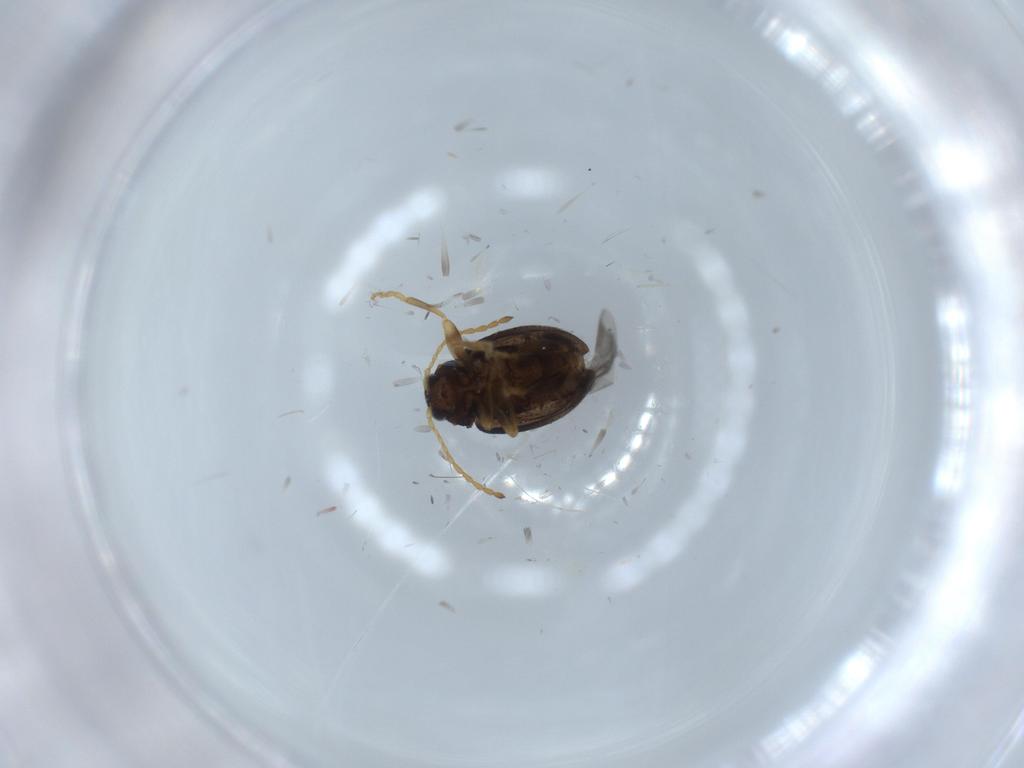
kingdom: Animalia
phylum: Arthropoda
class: Insecta
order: Coleoptera
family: Chrysomelidae
